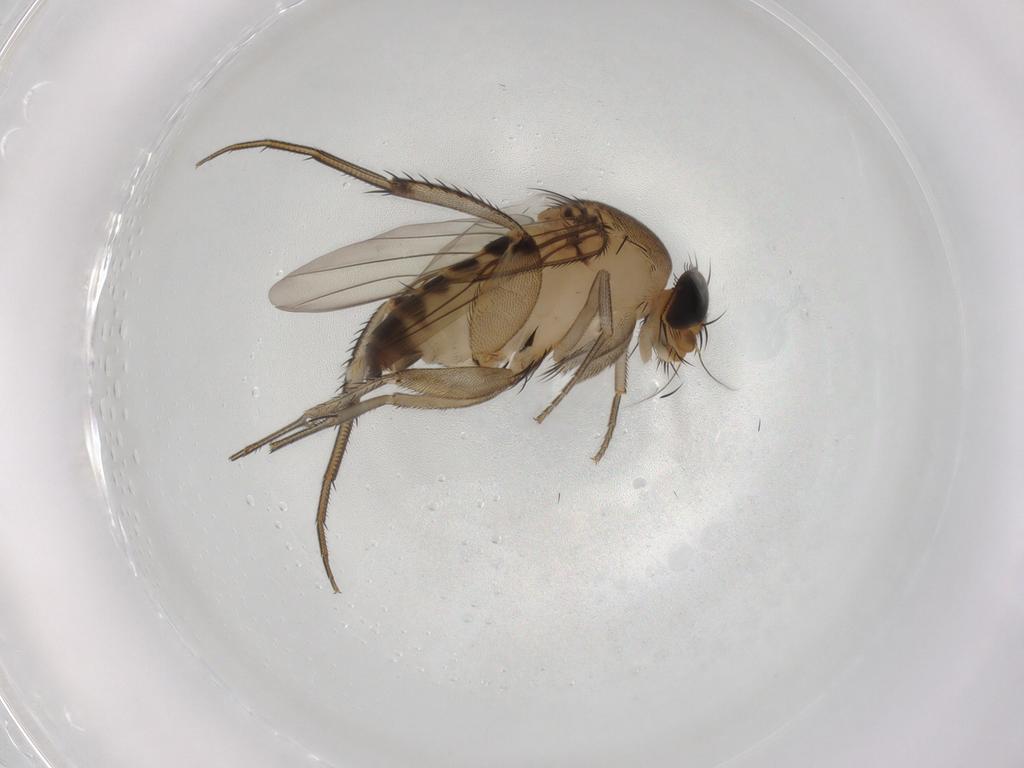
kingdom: Animalia
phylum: Arthropoda
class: Insecta
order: Diptera
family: Phoridae
